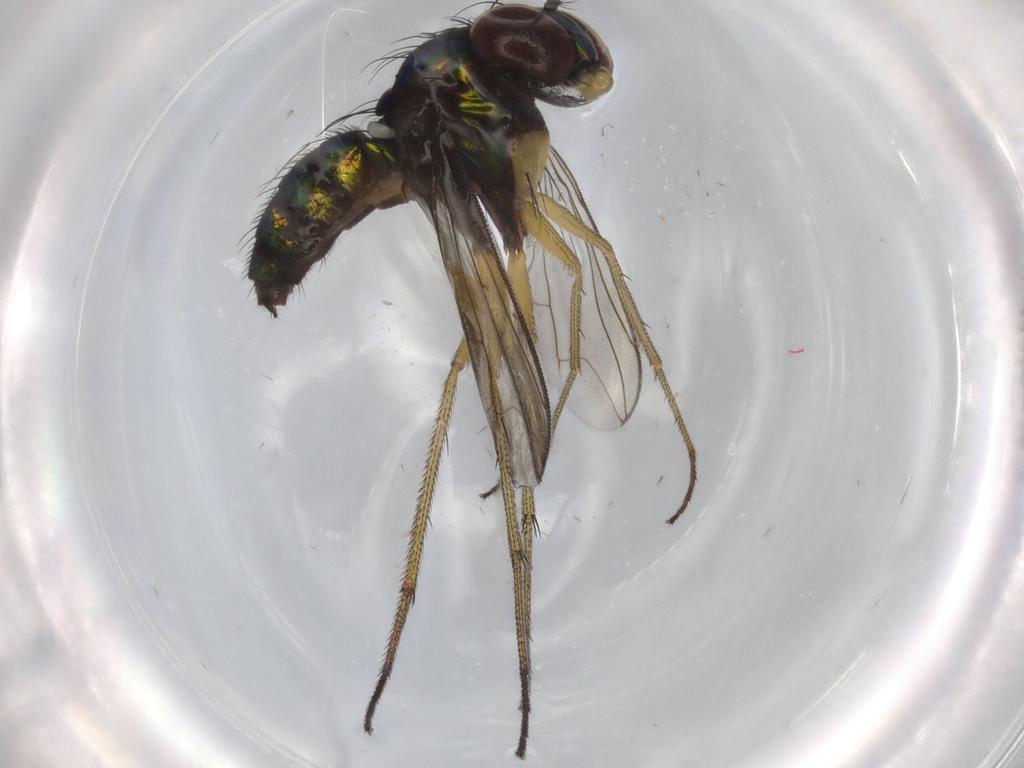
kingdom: Animalia
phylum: Arthropoda
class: Insecta
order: Diptera
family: Dolichopodidae
